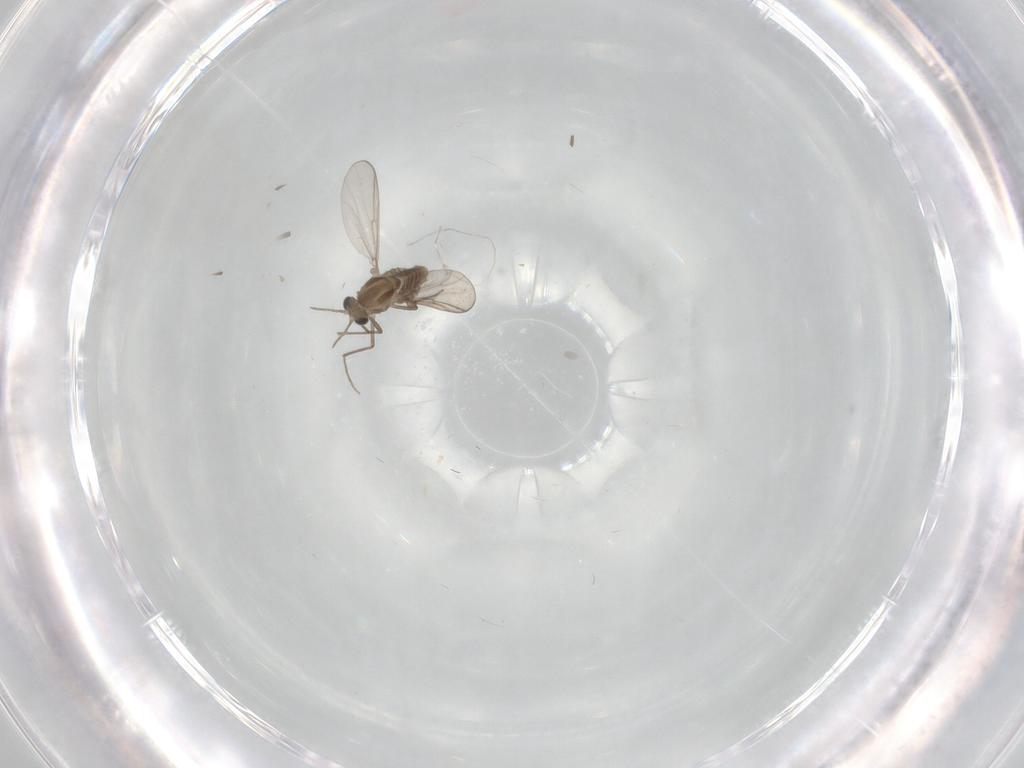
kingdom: Animalia
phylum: Arthropoda
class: Insecta
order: Diptera
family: Chironomidae
